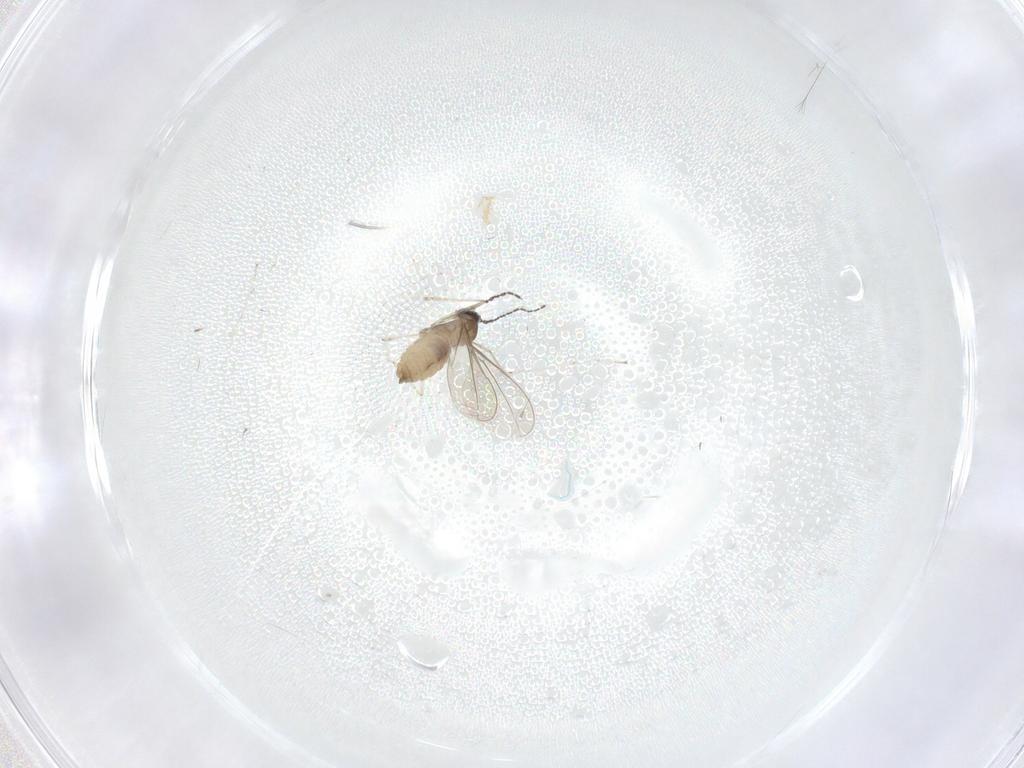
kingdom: Animalia
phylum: Arthropoda
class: Insecta
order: Diptera
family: Cecidomyiidae
